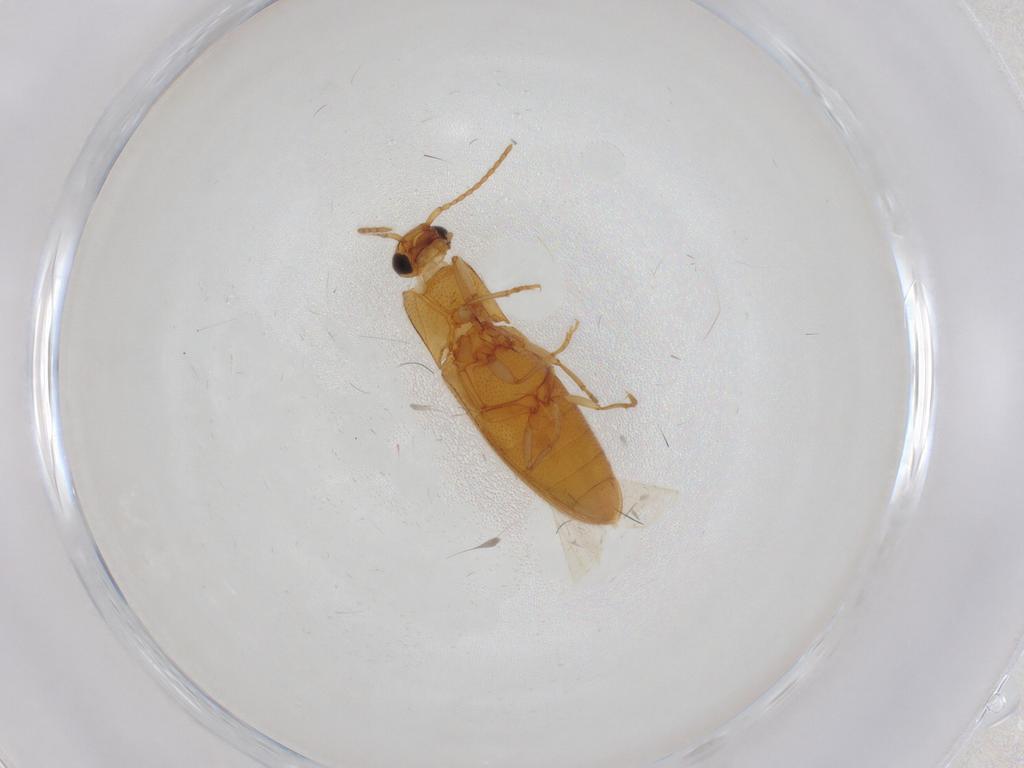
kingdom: Animalia
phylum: Arthropoda
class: Insecta
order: Coleoptera
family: Elateridae
